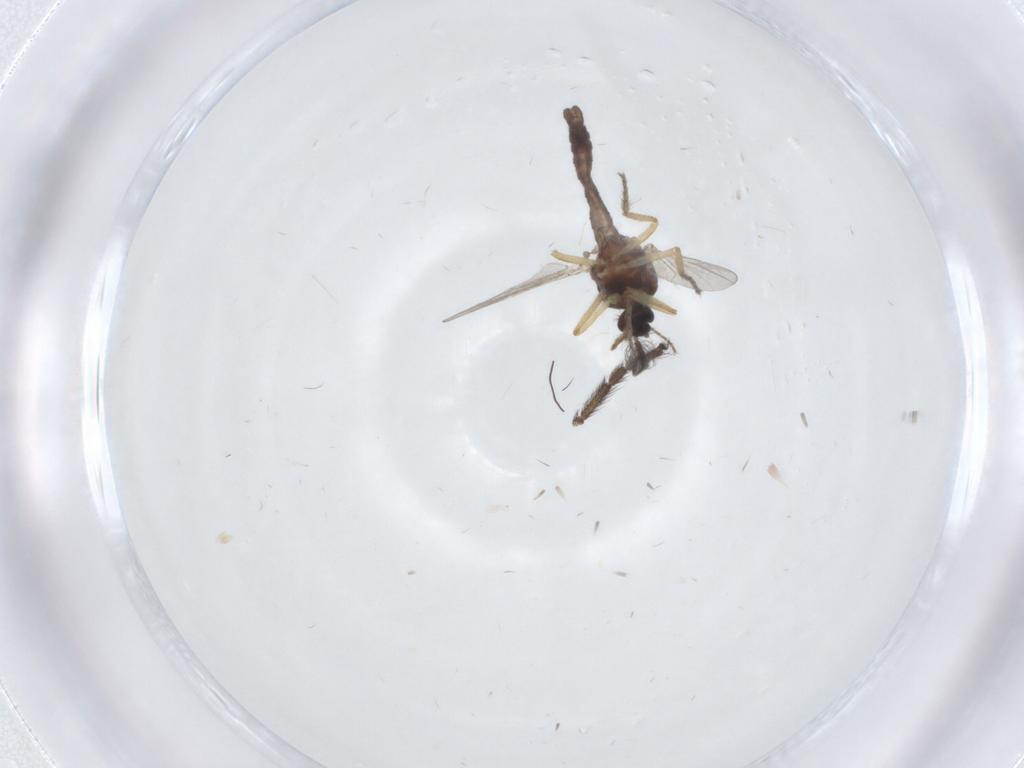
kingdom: Animalia
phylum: Arthropoda
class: Insecta
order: Diptera
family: Ceratopogonidae
